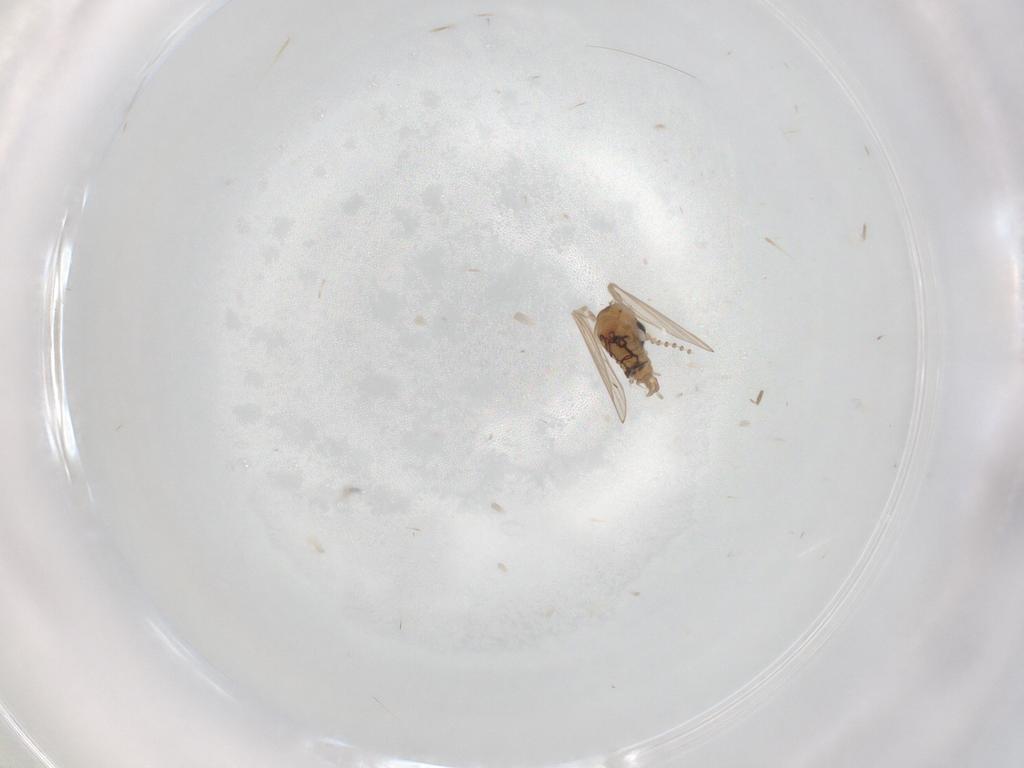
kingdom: Animalia
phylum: Arthropoda
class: Insecta
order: Diptera
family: Psychodidae
